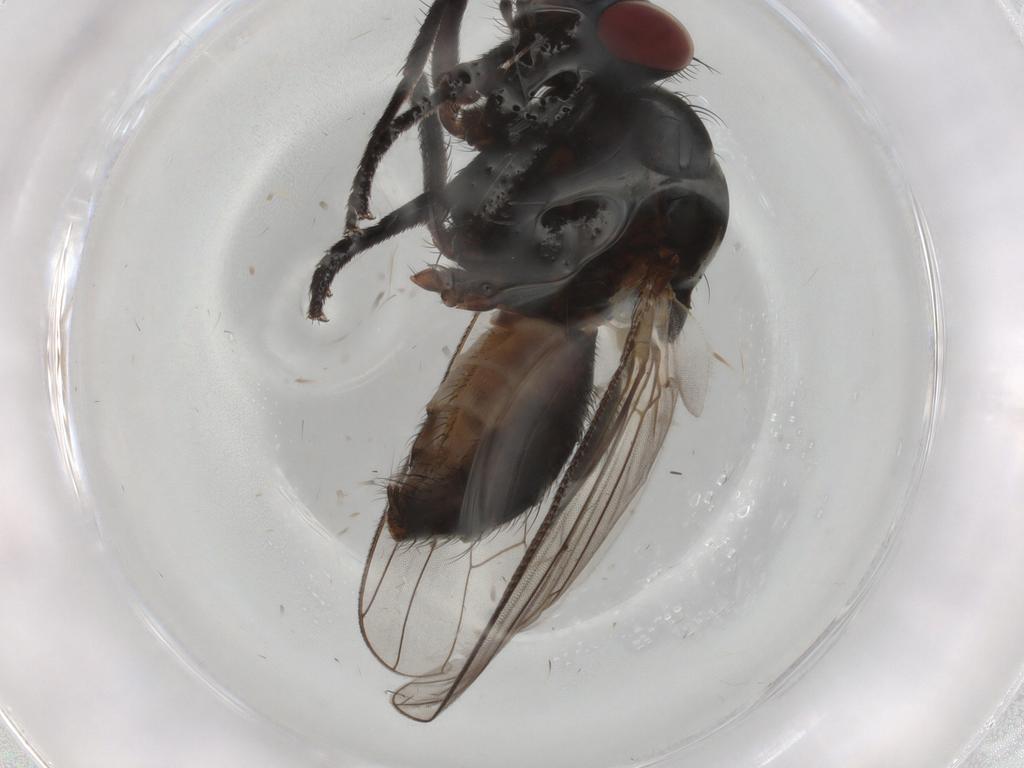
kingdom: Animalia
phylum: Arthropoda
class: Insecta
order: Diptera
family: Anthomyiidae
